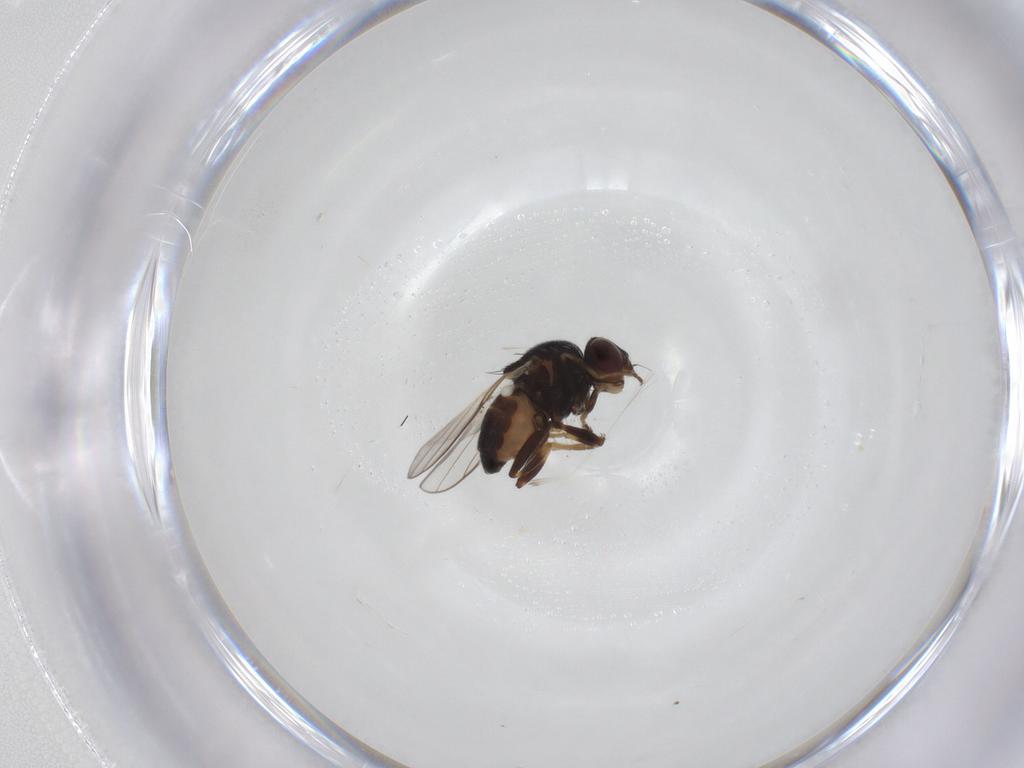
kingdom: Animalia
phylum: Arthropoda
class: Insecta
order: Diptera
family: Chloropidae
